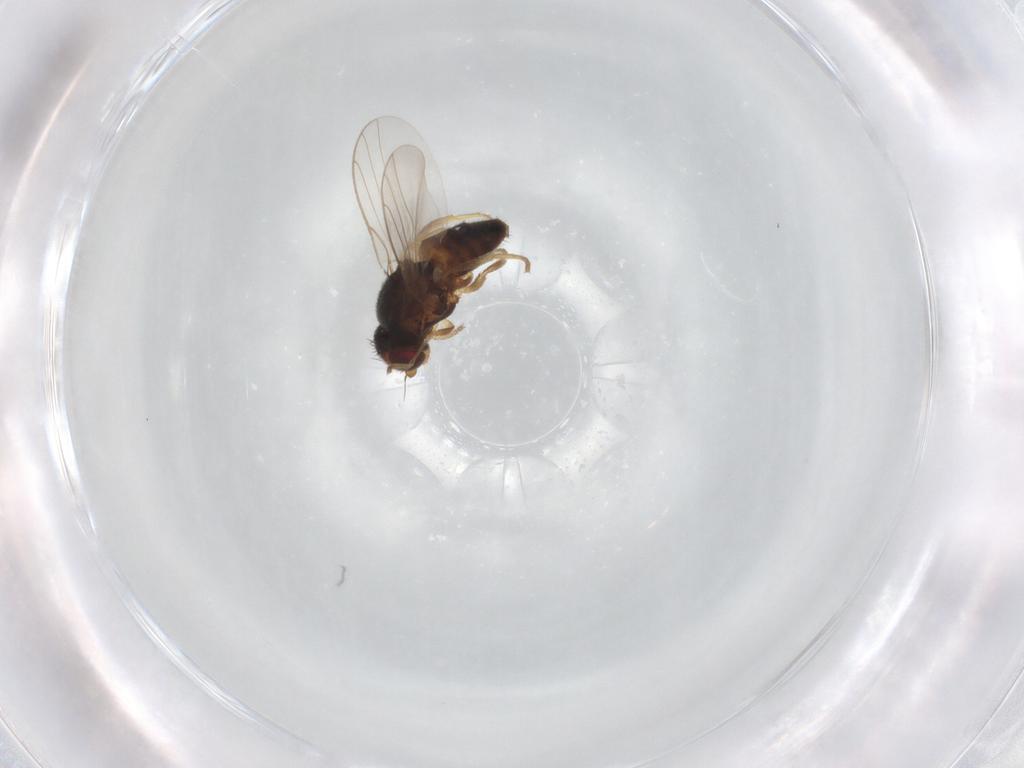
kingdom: Animalia
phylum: Arthropoda
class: Insecta
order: Diptera
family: Chloropidae
